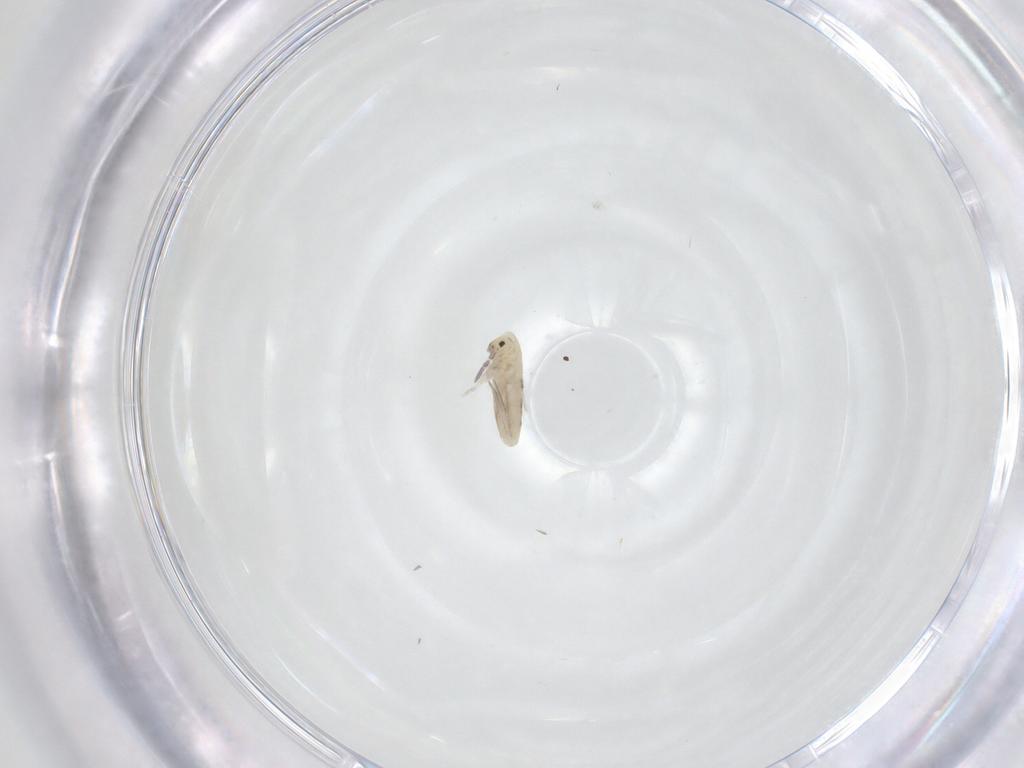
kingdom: Animalia
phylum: Arthropoda
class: Collembola
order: Entomobryomorpha
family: Entomobryidae
